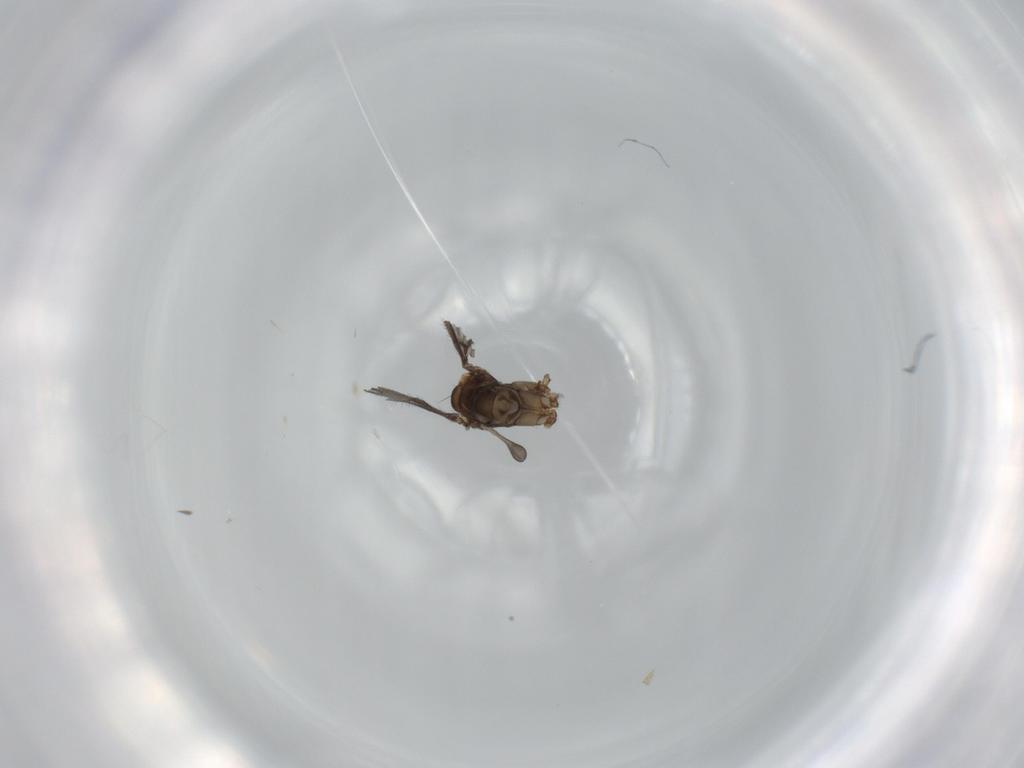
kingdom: Animalia
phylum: Arthropoda
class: Insecta
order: Diptera
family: Sciaridae
